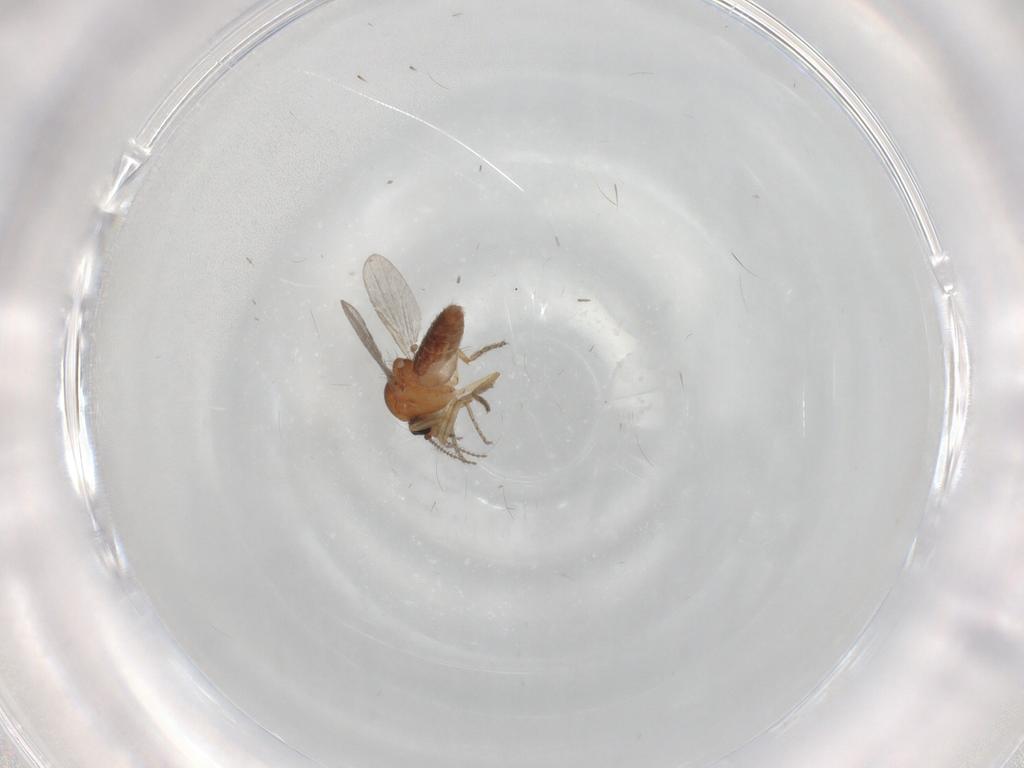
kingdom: Animalia
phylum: Arthropoda
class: Insecta
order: Diptera
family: Ceratopogonidae
